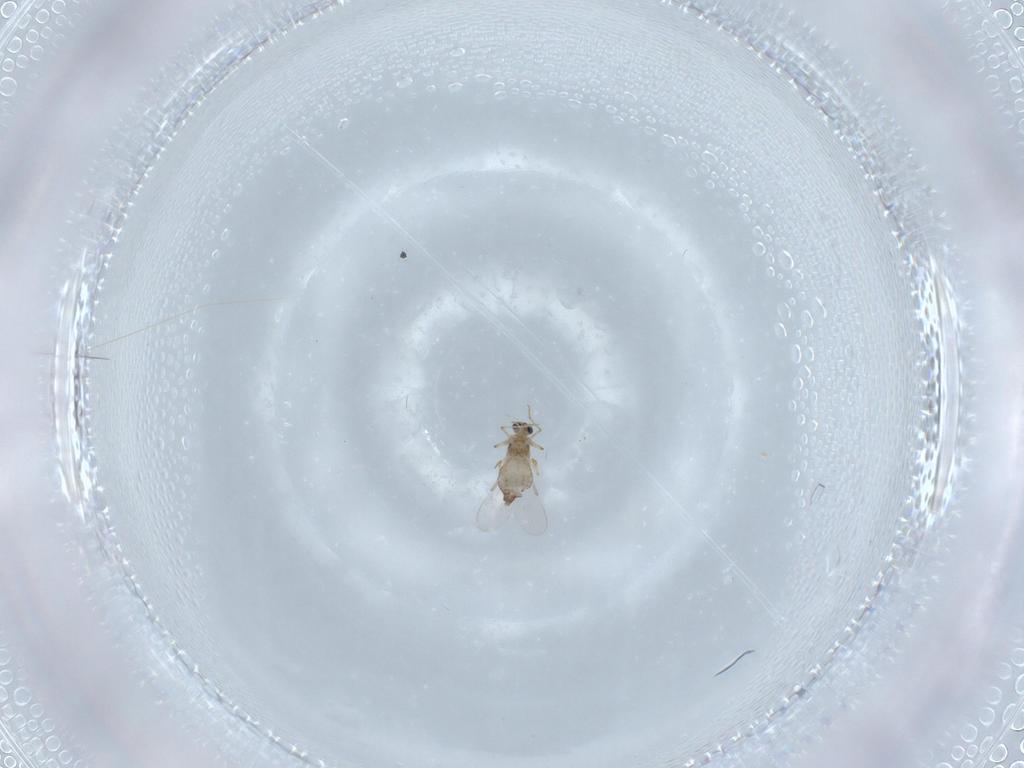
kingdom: Animalia
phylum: Arthropoda
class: Insecta
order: Diptera
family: Chironomidae
